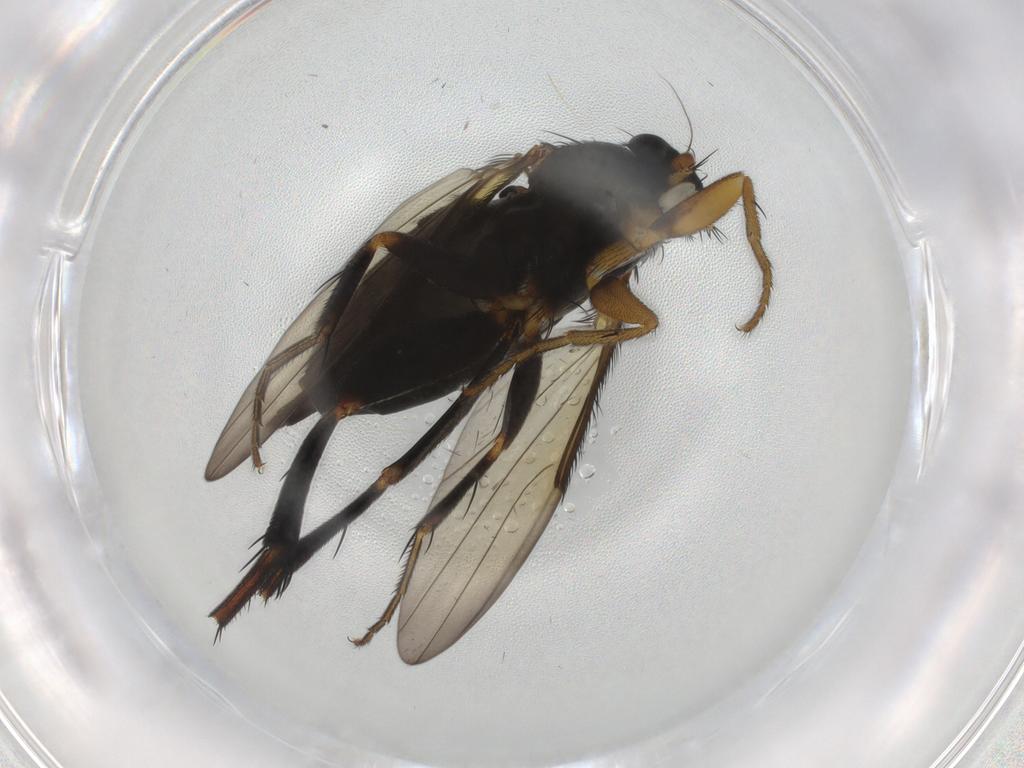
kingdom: Animalia
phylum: Arthropoda
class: Insecta
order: Diptera
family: Phoridae
